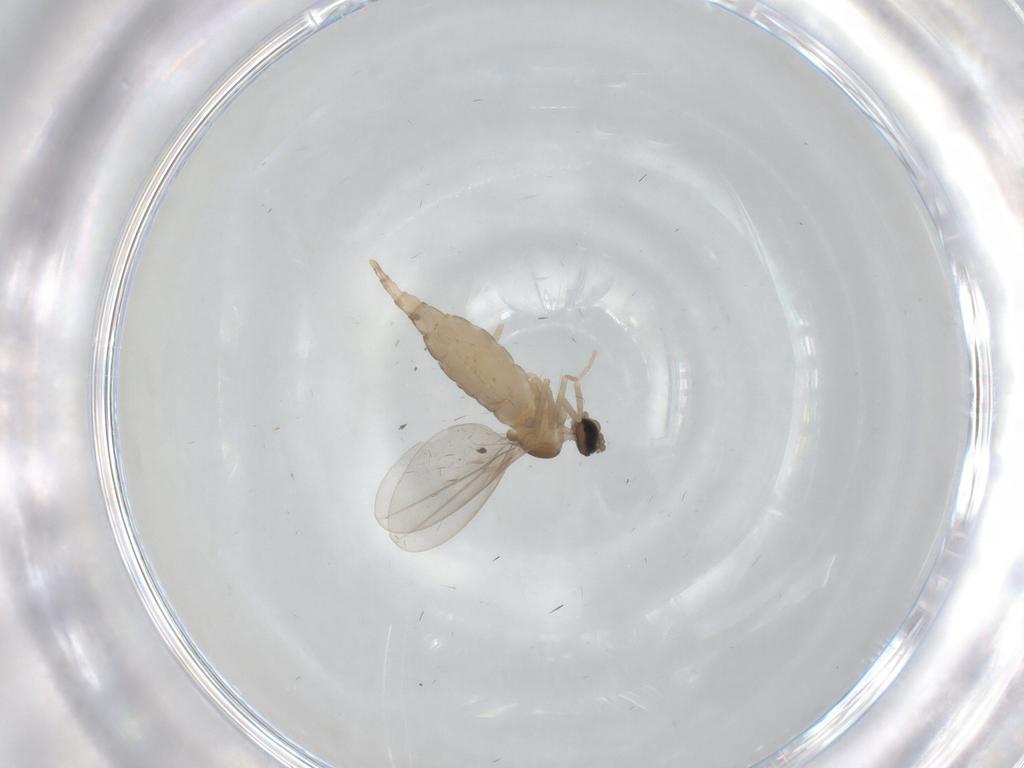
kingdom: Animalia
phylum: Arthropoda
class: Insecta
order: Diptera
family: Cecidomyiidae
